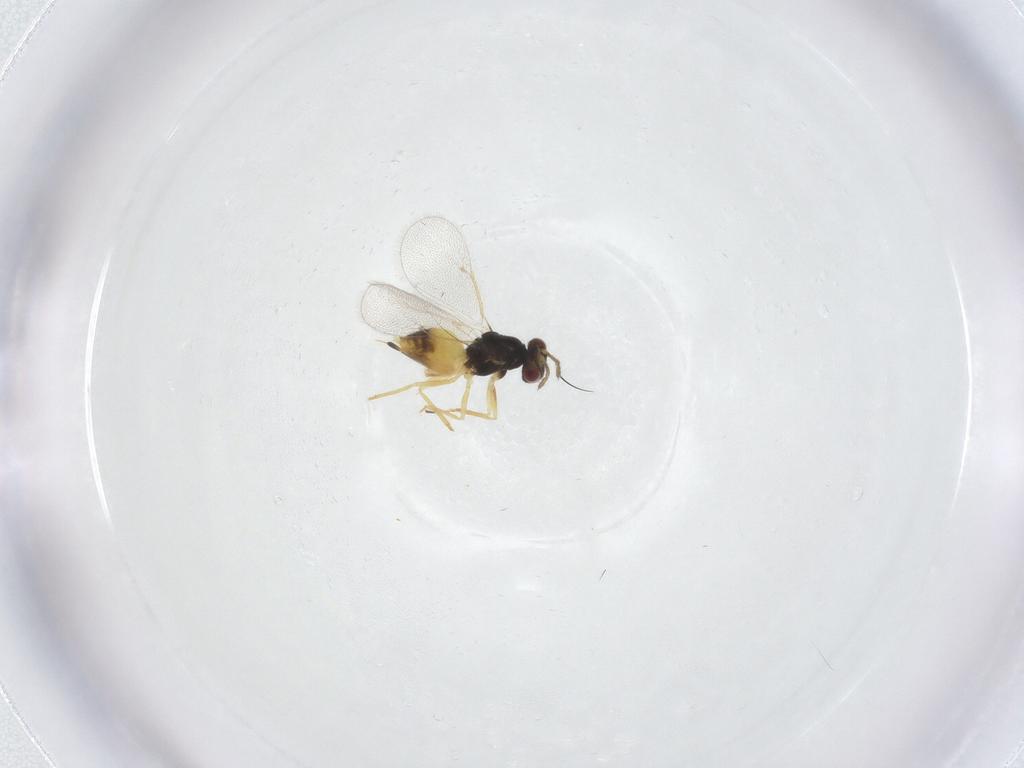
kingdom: Animalia
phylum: Arthropoda
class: Insecta
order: Hymenoptera
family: Eulophidae
